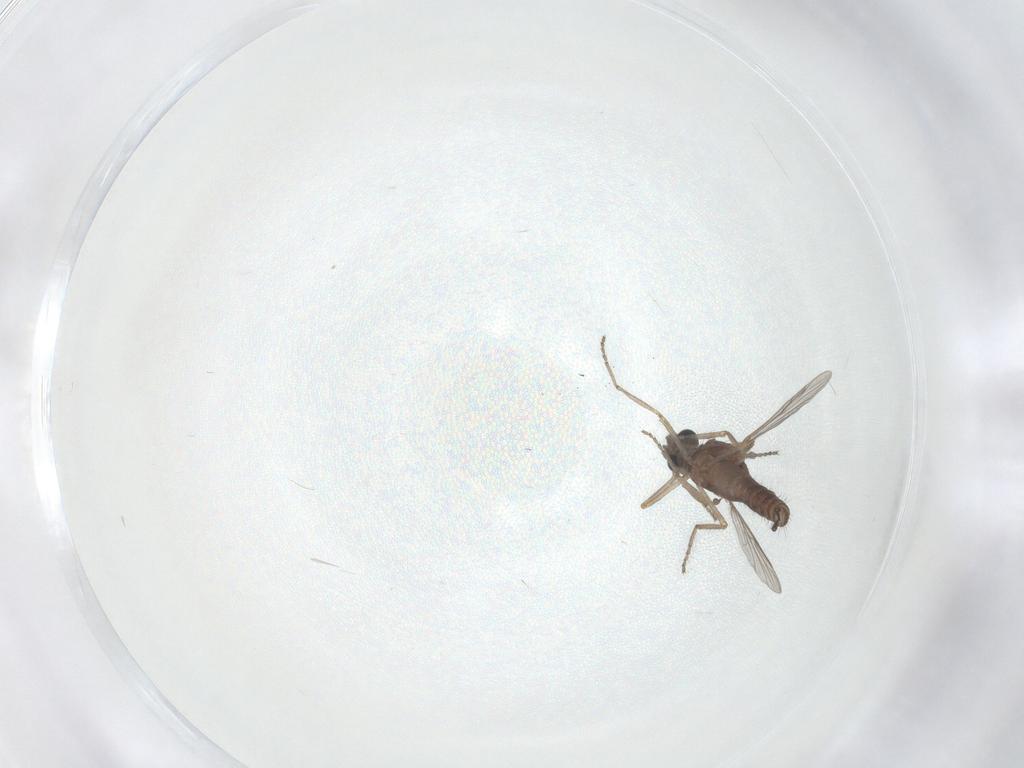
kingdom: Animalia
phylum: Arthropoda
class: Insecta
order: Diptera
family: Ceratopogonidae
